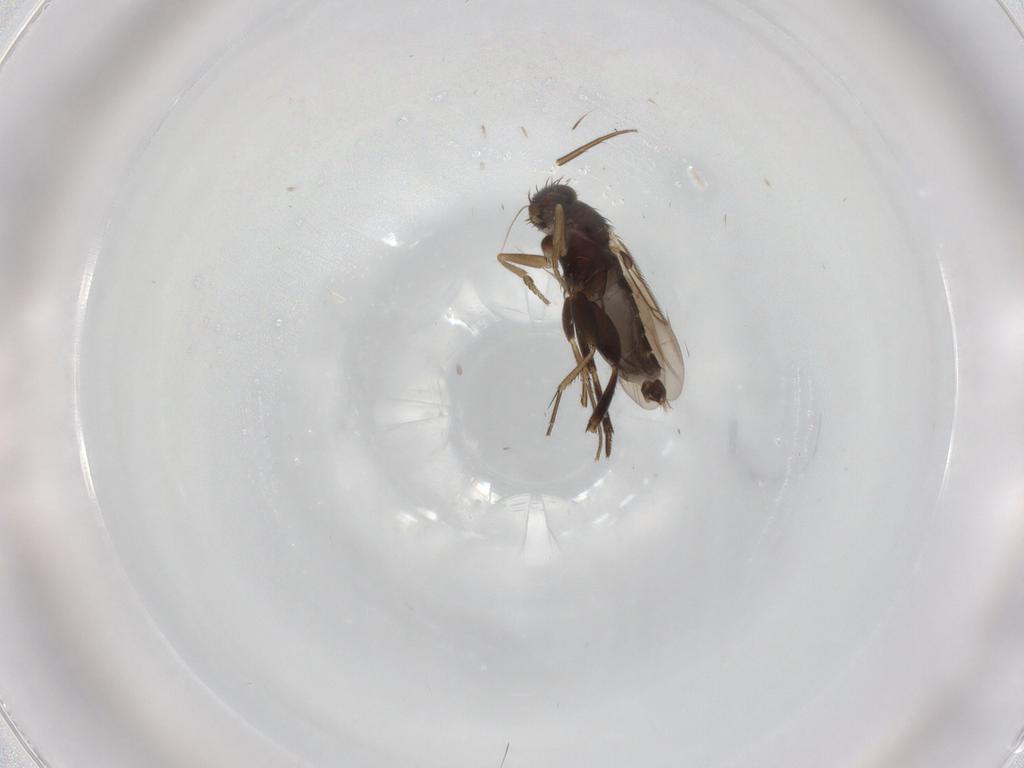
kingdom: Animalia
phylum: Arthropoda
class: Insecta
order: Diptera
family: Phoridae
